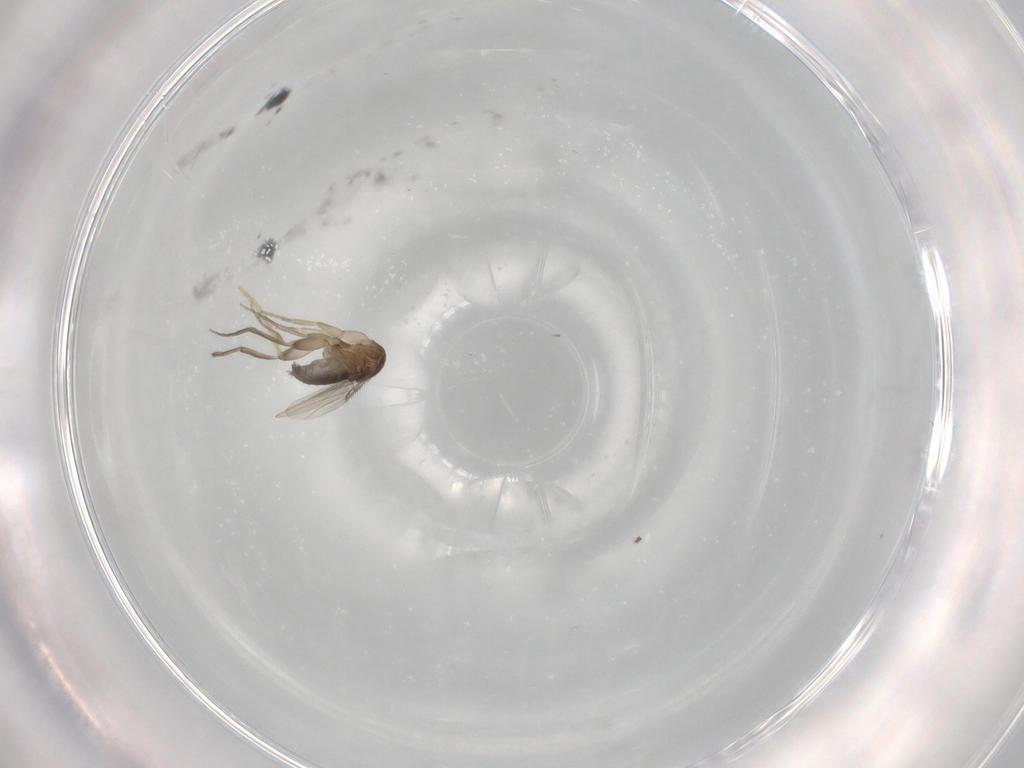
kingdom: Animalia
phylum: Arthropoda
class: Insecta
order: Diptera
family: Phoridae
